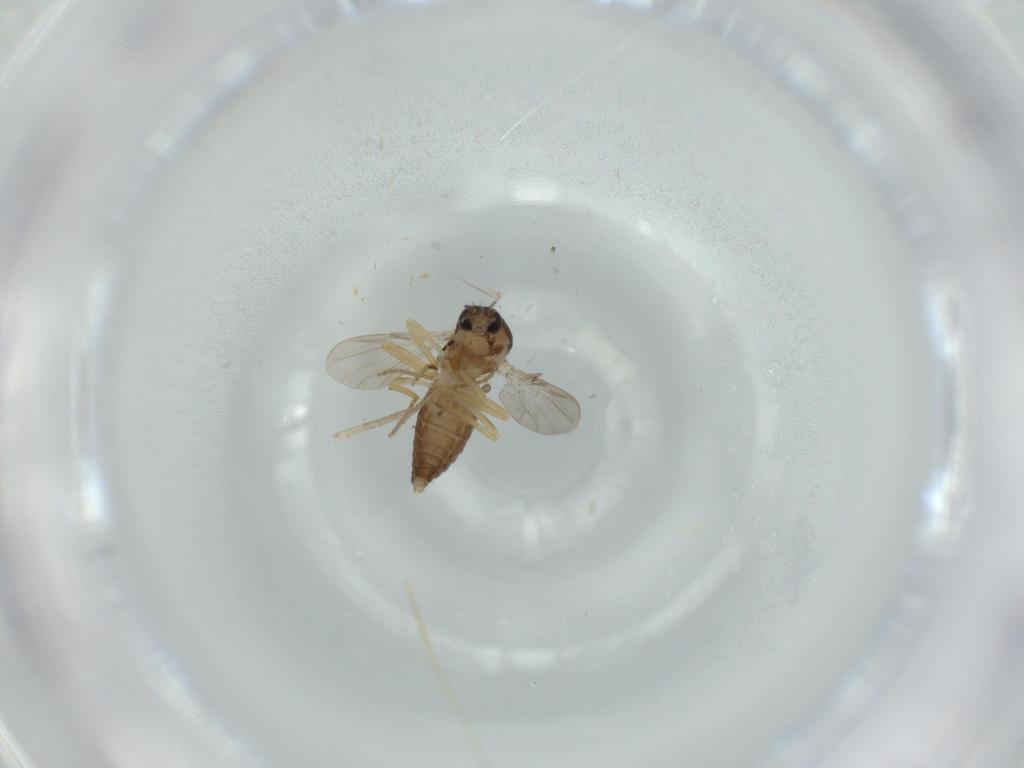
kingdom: Animalia
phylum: Arthropoda
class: Insecta
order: Diptera
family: Ceratopogonidae
